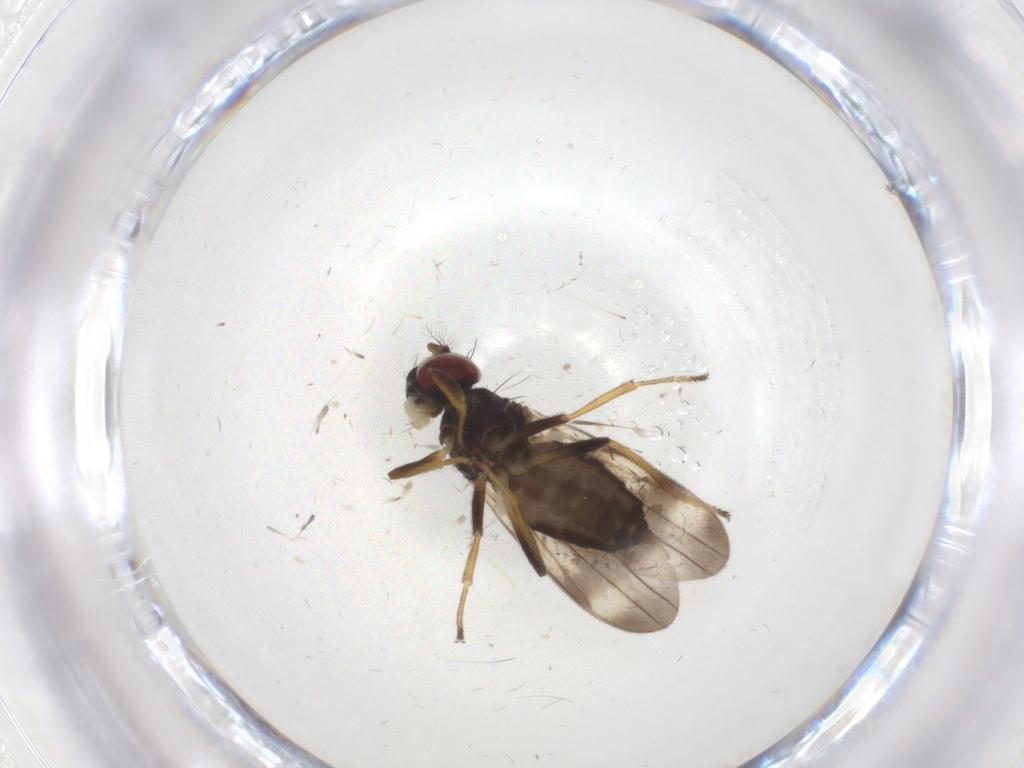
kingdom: Animalia
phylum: Arthropoda
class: Insecta
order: Diptera
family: Periscelididae
